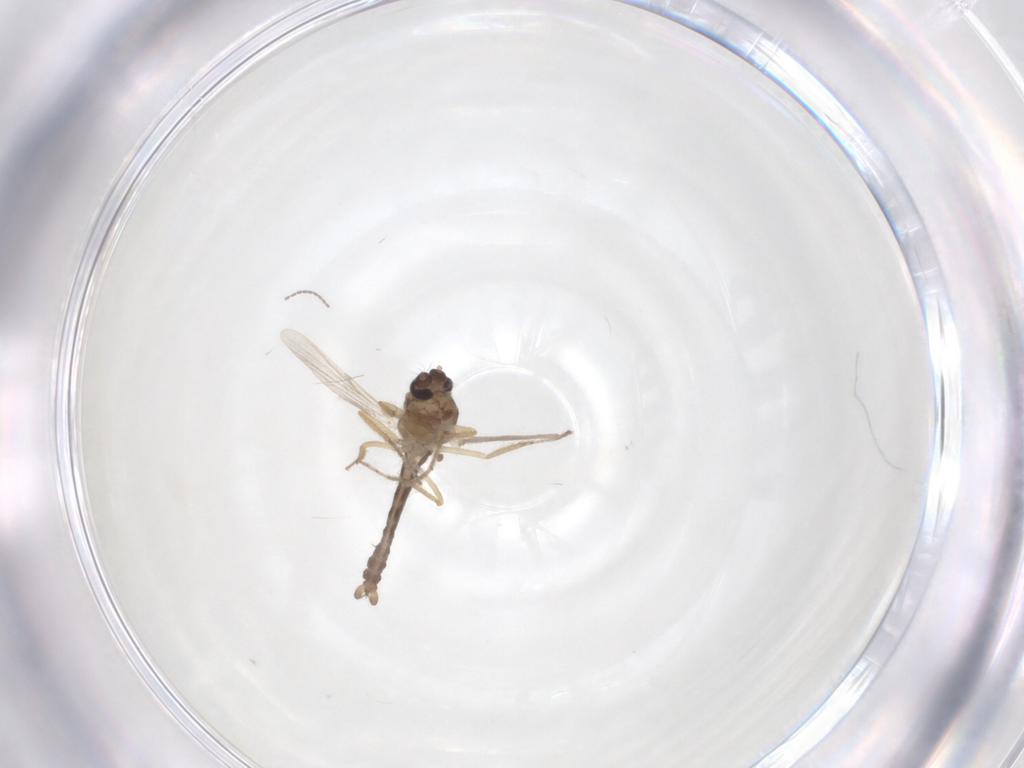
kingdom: Animalia
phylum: Arthropoda
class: Insecta
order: Diptera
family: Ceratopogonidae
